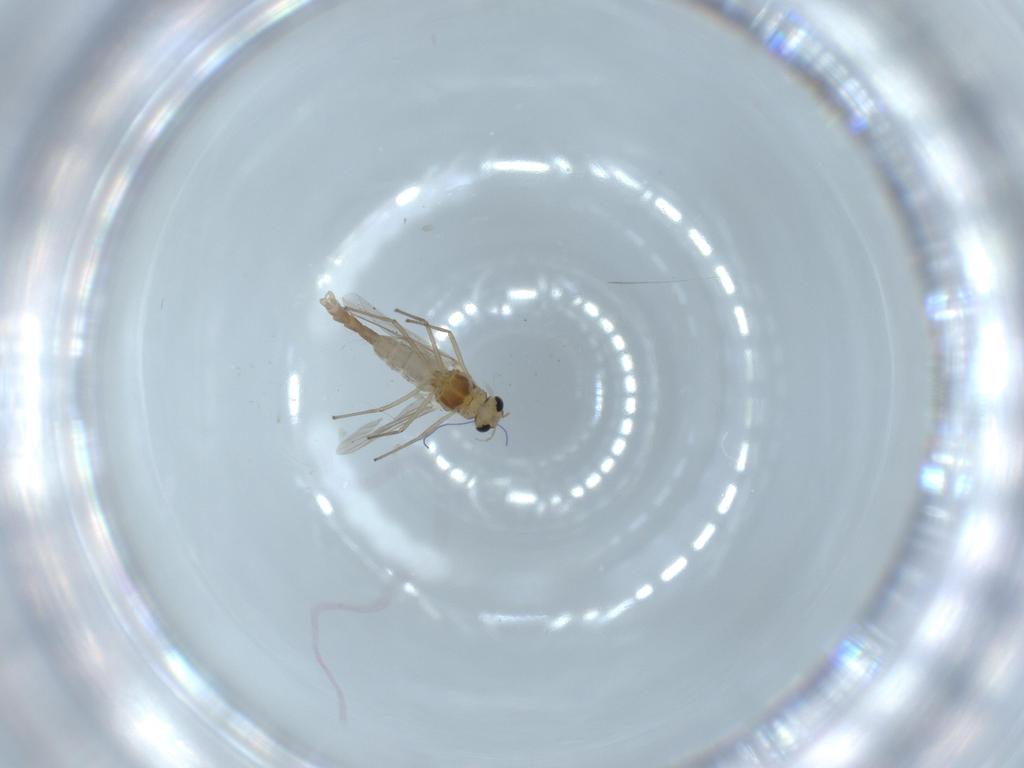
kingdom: Animalia
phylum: Arthropoda
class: Insecta
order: Diptera
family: Chironomidae
